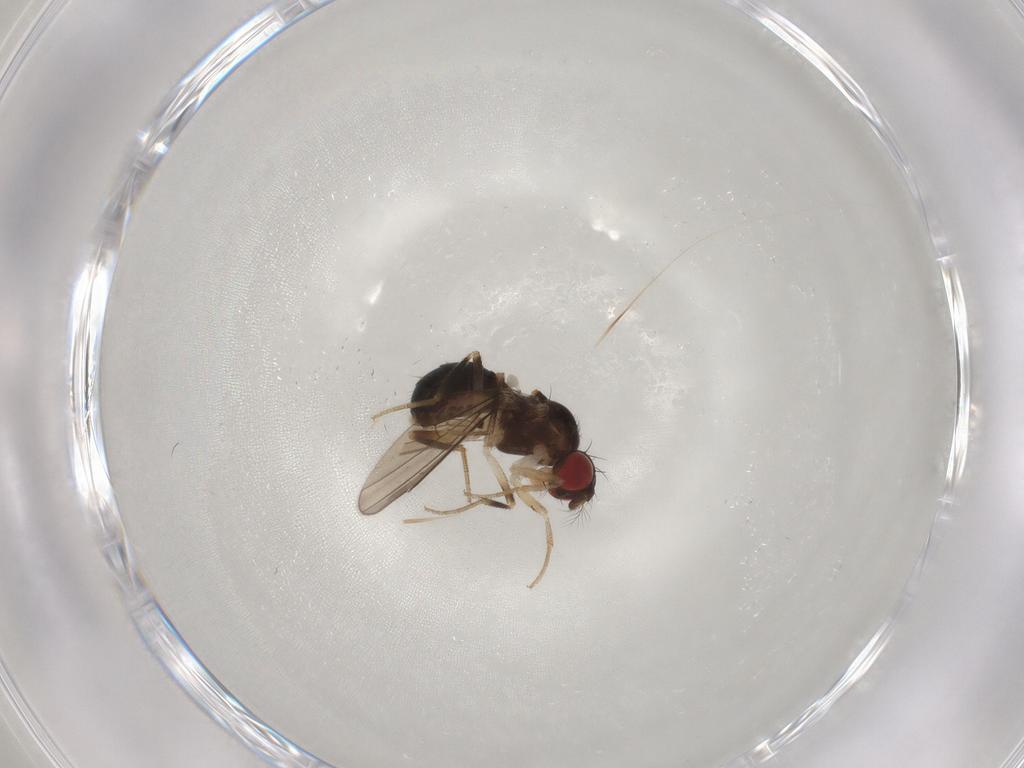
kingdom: Animalia
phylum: Arthropoda
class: Insecta
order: Diptera
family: Drosophilidae
